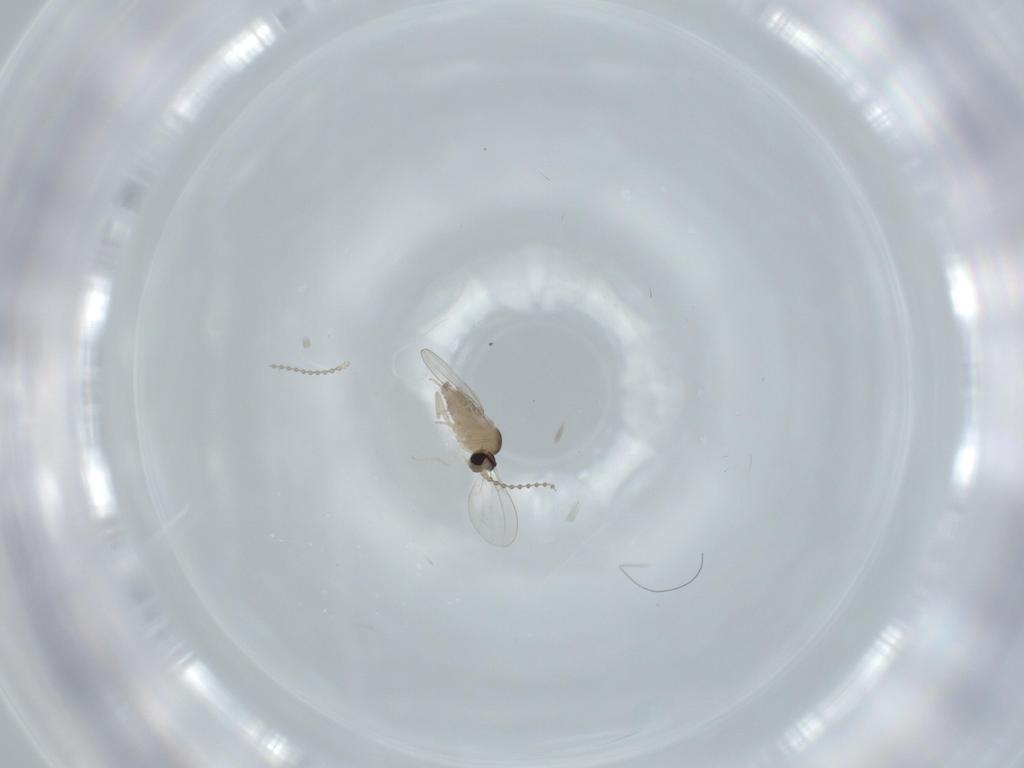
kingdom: Animalia
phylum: Arthropoda
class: Insecta
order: Diptera
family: Cecidomyiidae
